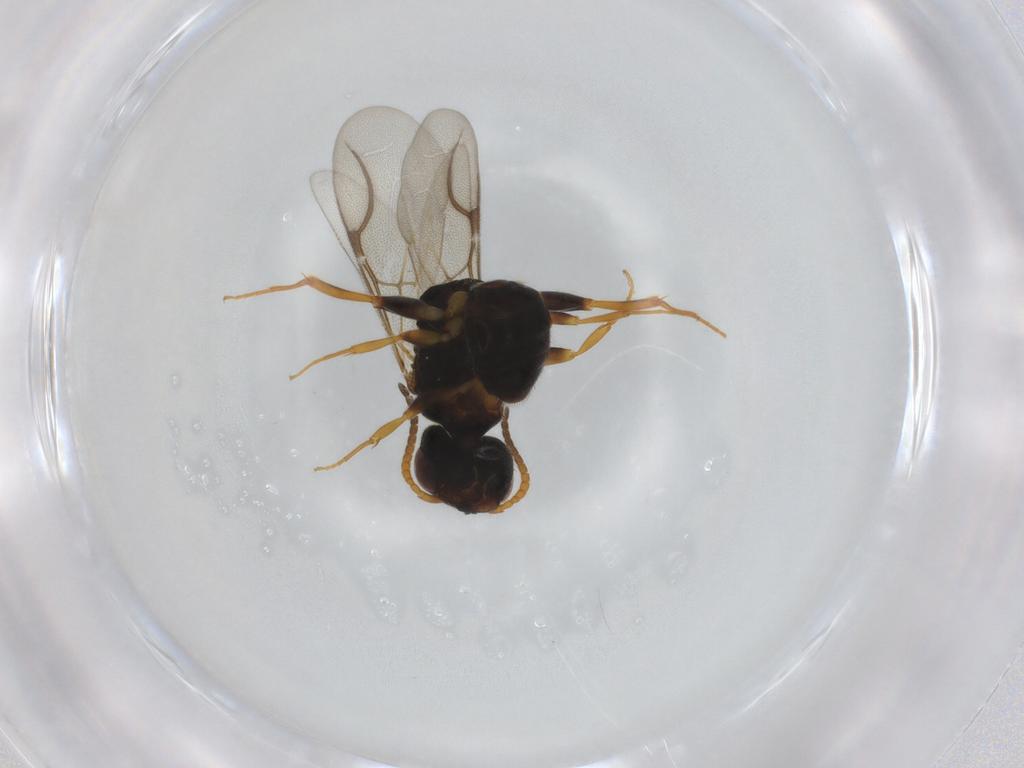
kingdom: Animalia
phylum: Arthropoda
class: Insecta
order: Hymenoptera
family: Bethylidae
